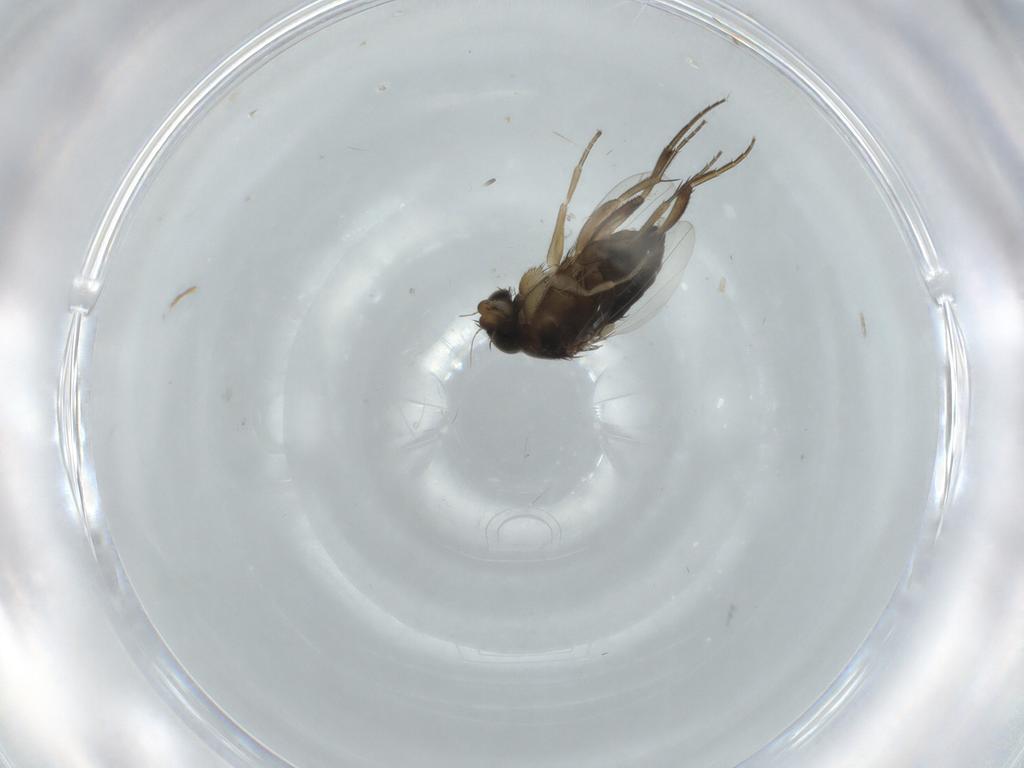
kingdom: Animalia
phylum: Arthropoda
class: Insecta
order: Diptera
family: Phoridae
